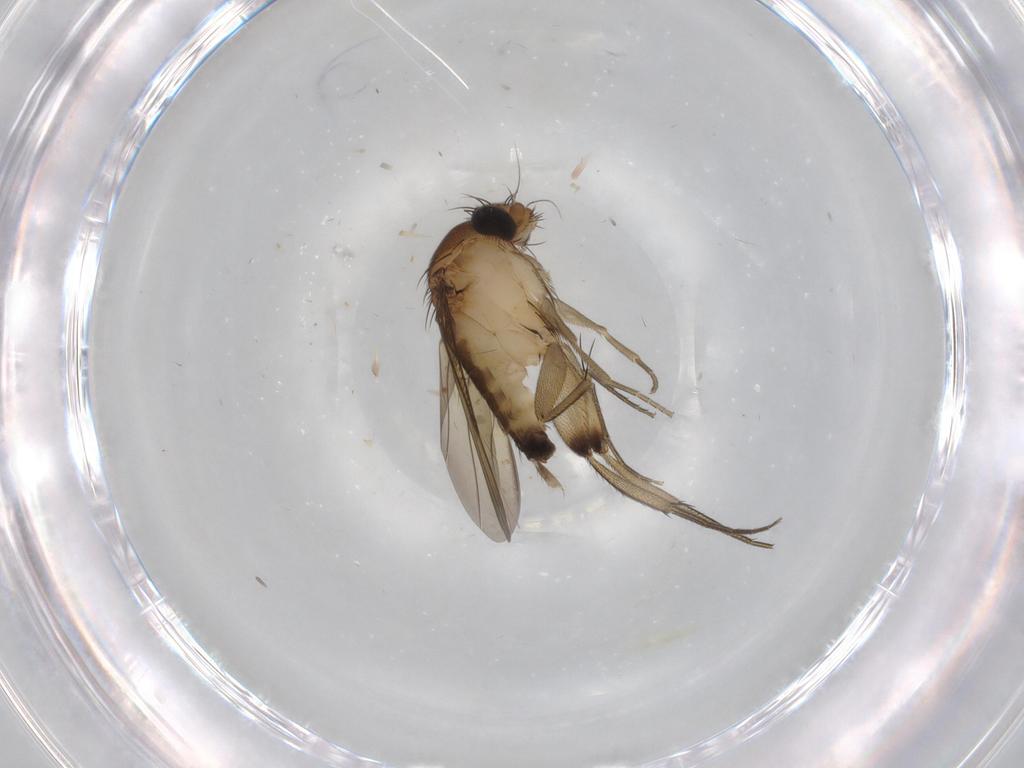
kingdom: Animalia
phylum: Arthropoda
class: Insecta
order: Diptera
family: Phoridae
